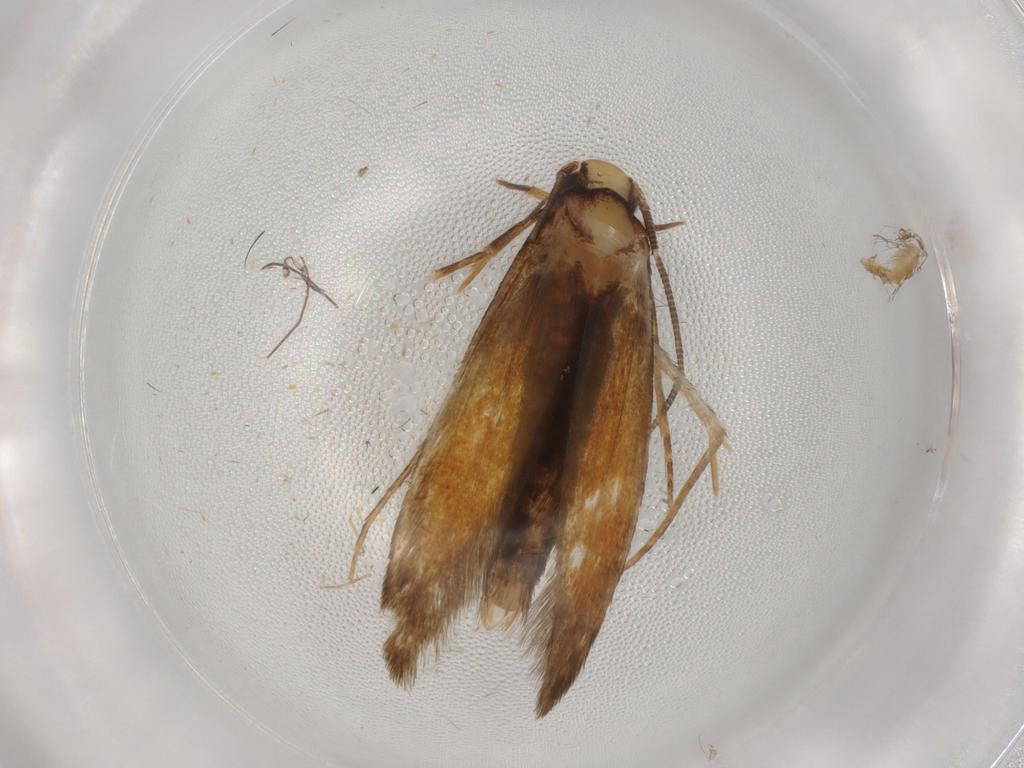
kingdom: Animalia
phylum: Arthropoda
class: Insecta
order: Lepidoptera
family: Tineidae
